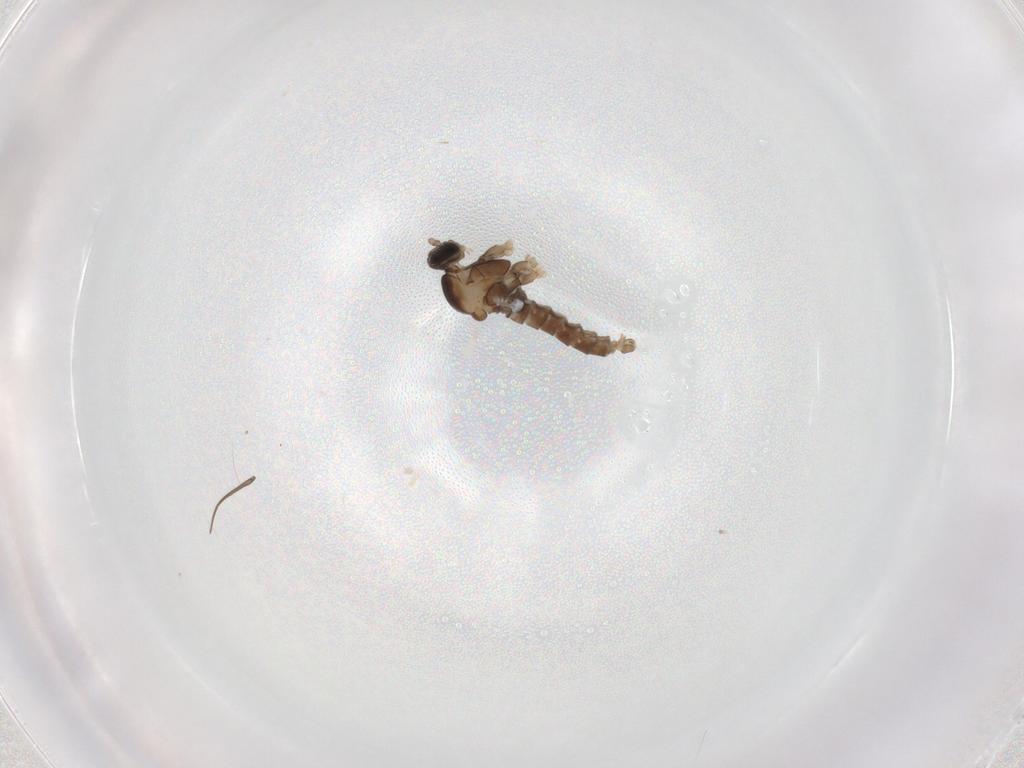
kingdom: Animalia
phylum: Arthropoda
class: Insecta
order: Diptera
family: Cecidomyiidae
